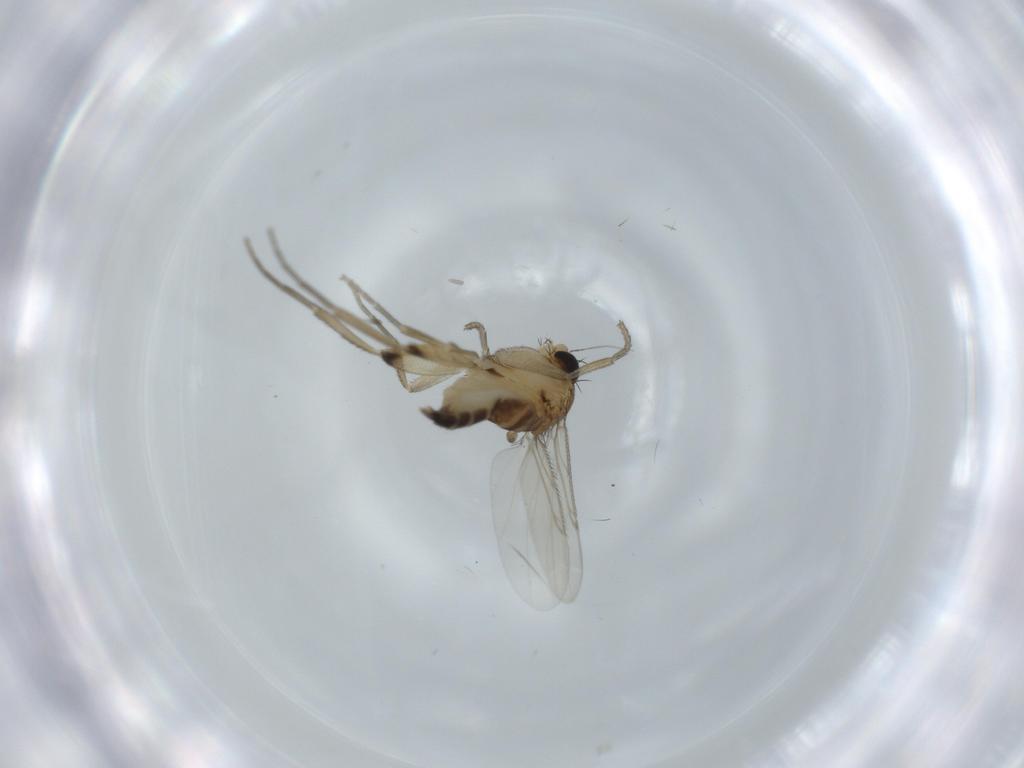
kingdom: Animalia
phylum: Arthropoda
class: Insecta
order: Diptera
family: Phoridae
